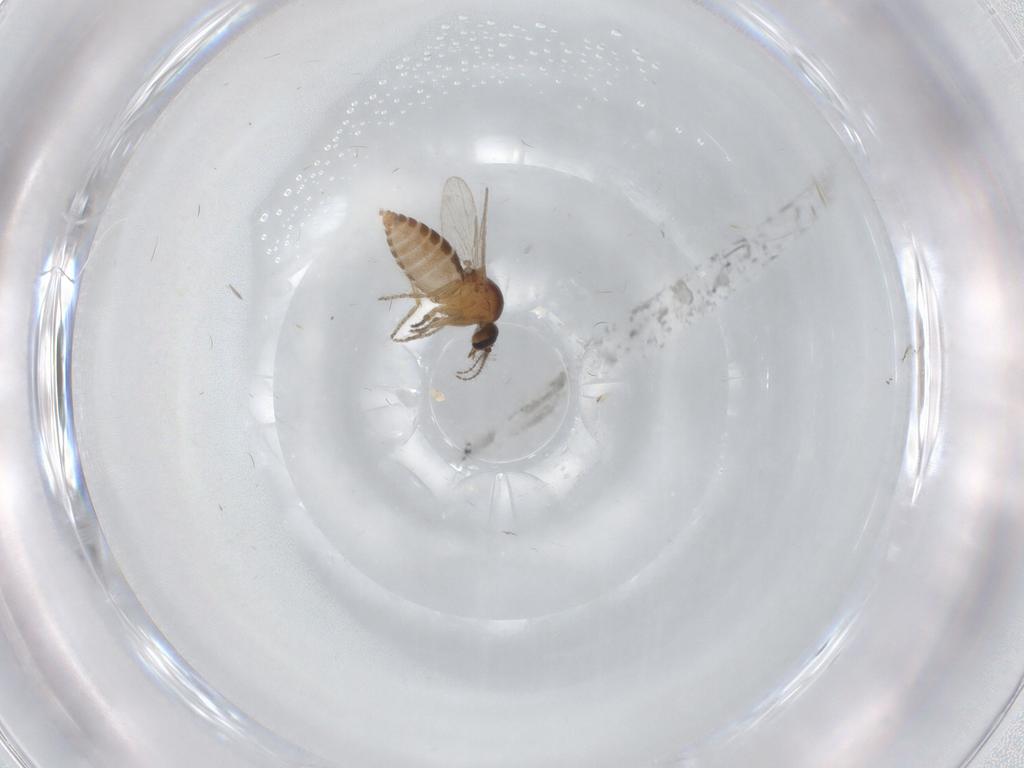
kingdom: Animalia
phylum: Arthropoda
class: Insecta
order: Diptera
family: Ceratopogonidae
